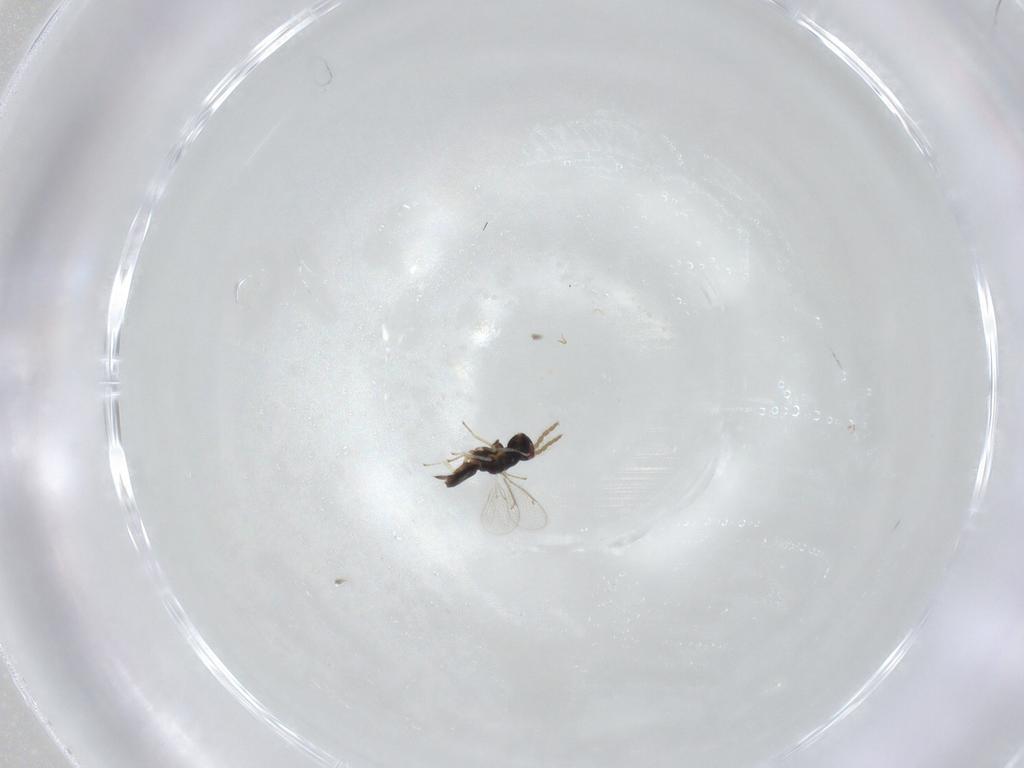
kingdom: Animalia
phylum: Arthropoda
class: Insecta
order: Hymenoptera
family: Eulophidae
